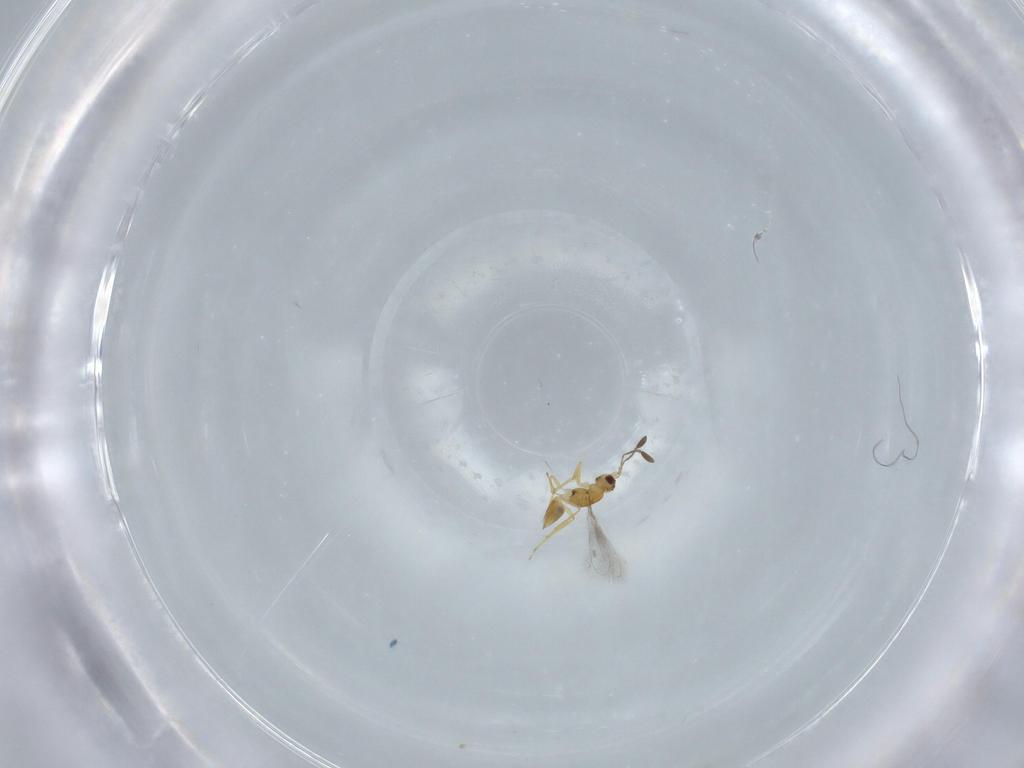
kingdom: Animalia
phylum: Arthropoda
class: Insecta
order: Hymenoptera
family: Mymaridae
